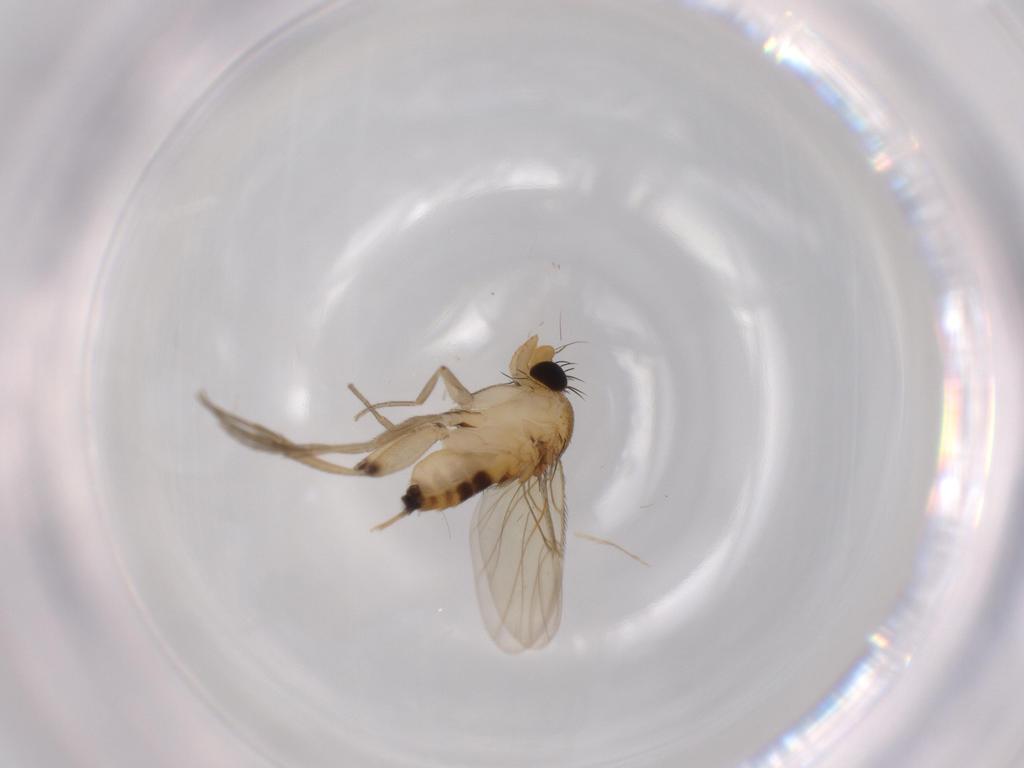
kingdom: Animalia
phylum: Arthropoda
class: Insecta
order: Diptera
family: Phoridae
